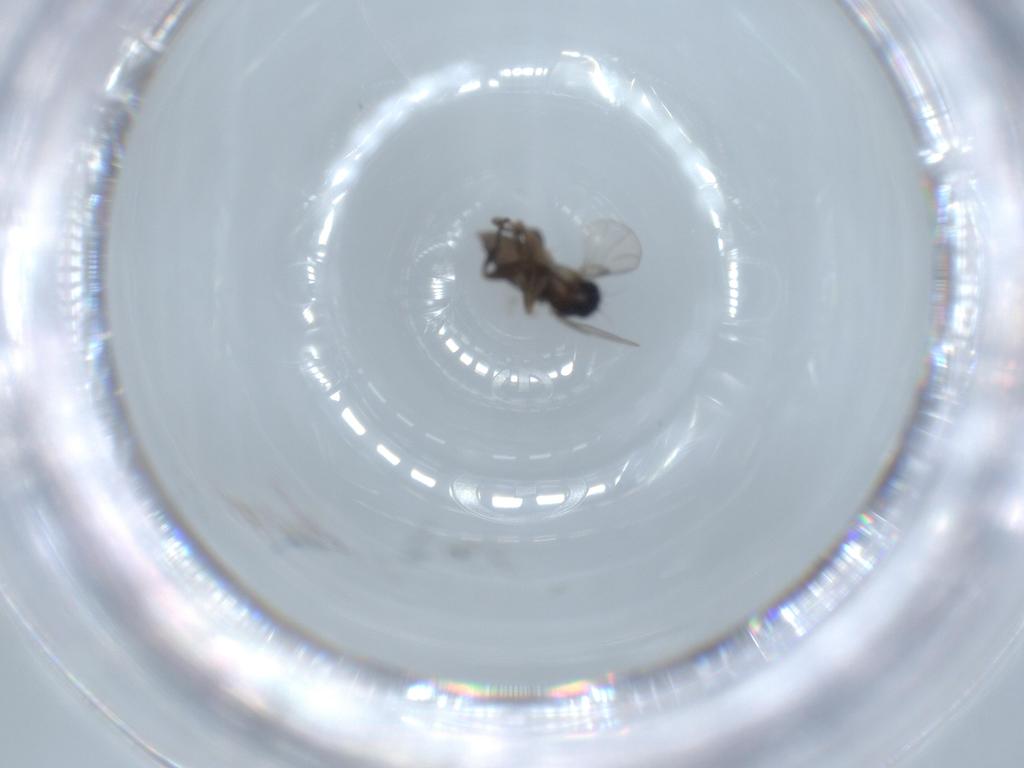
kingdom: Animalia
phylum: Arthropoda
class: Insecta
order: Diptera
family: Phoridae
